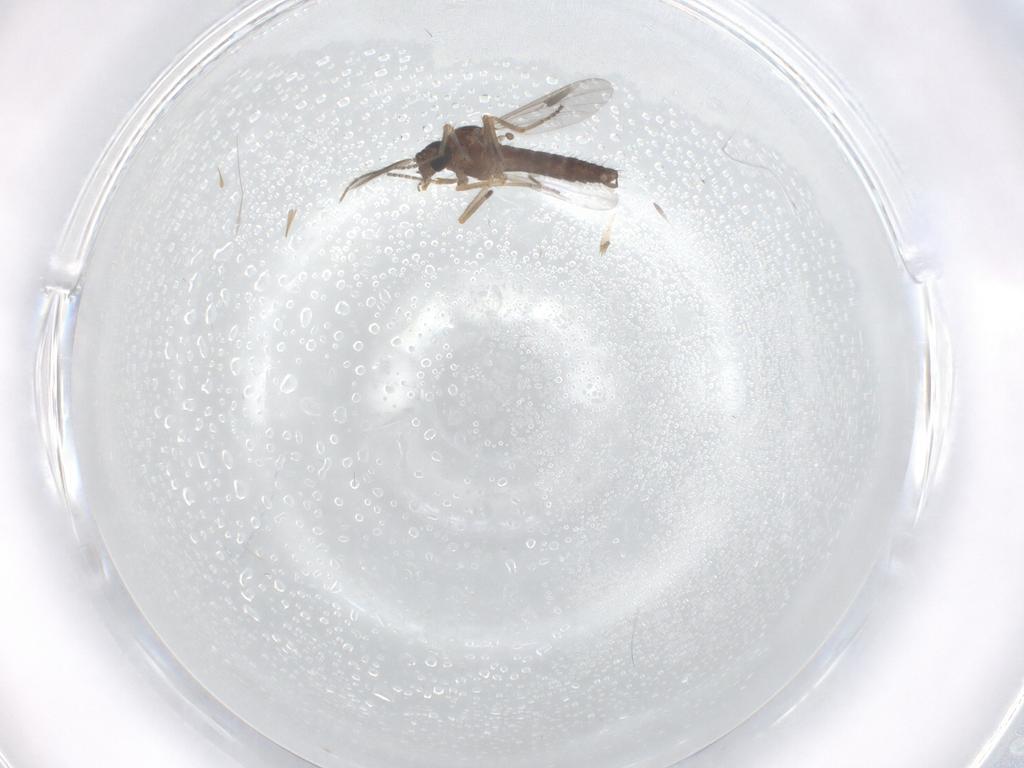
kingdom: Animalia
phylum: Arthropoda
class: Insecta
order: Diptera
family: Ceratopogonidae
